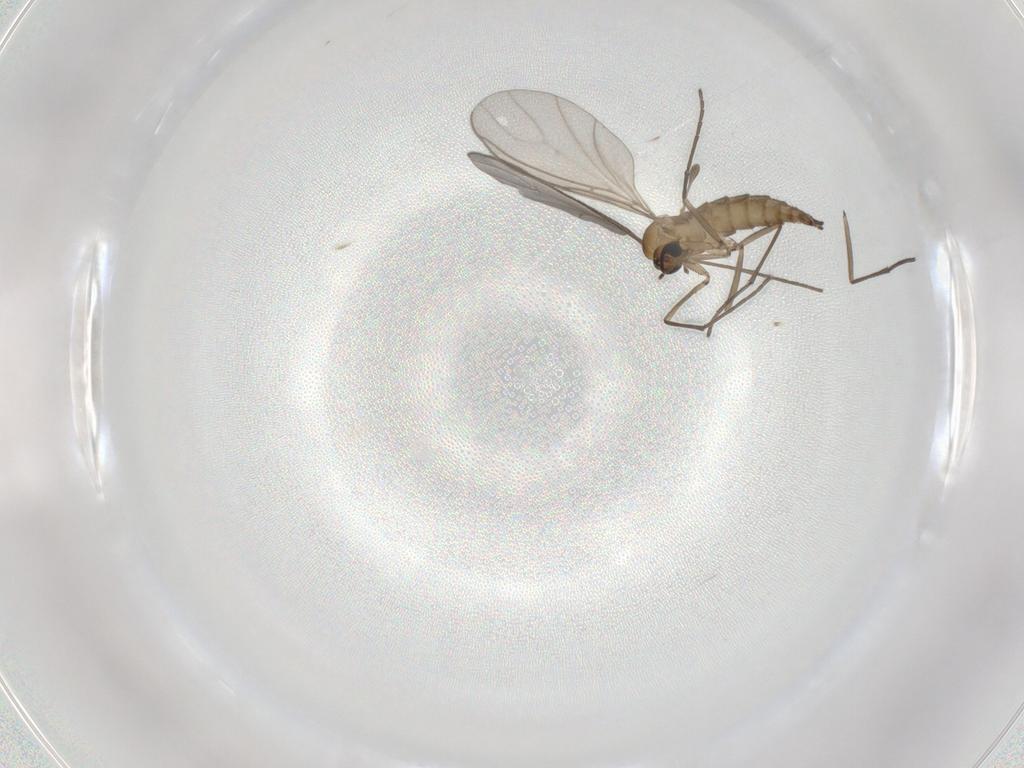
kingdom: Animalia
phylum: Arthropoda
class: Insecta
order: Diptera
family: Sciaridae
